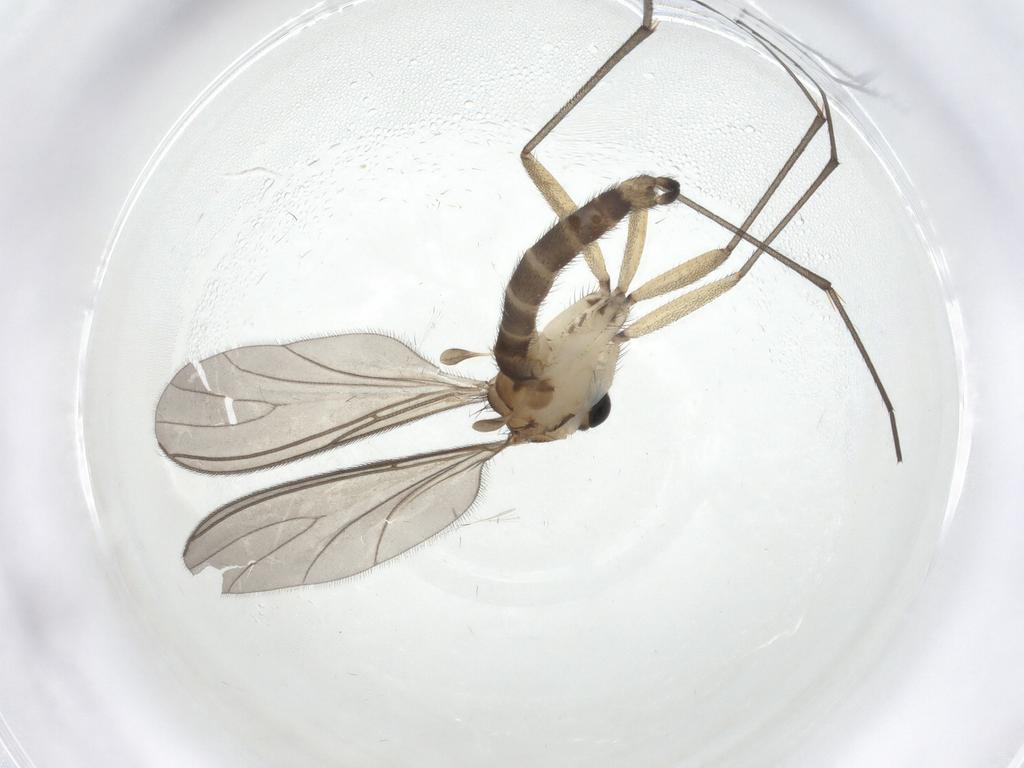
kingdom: Animalia
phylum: Arthropoda
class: Insecta
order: Diptera
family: Sciaridae
